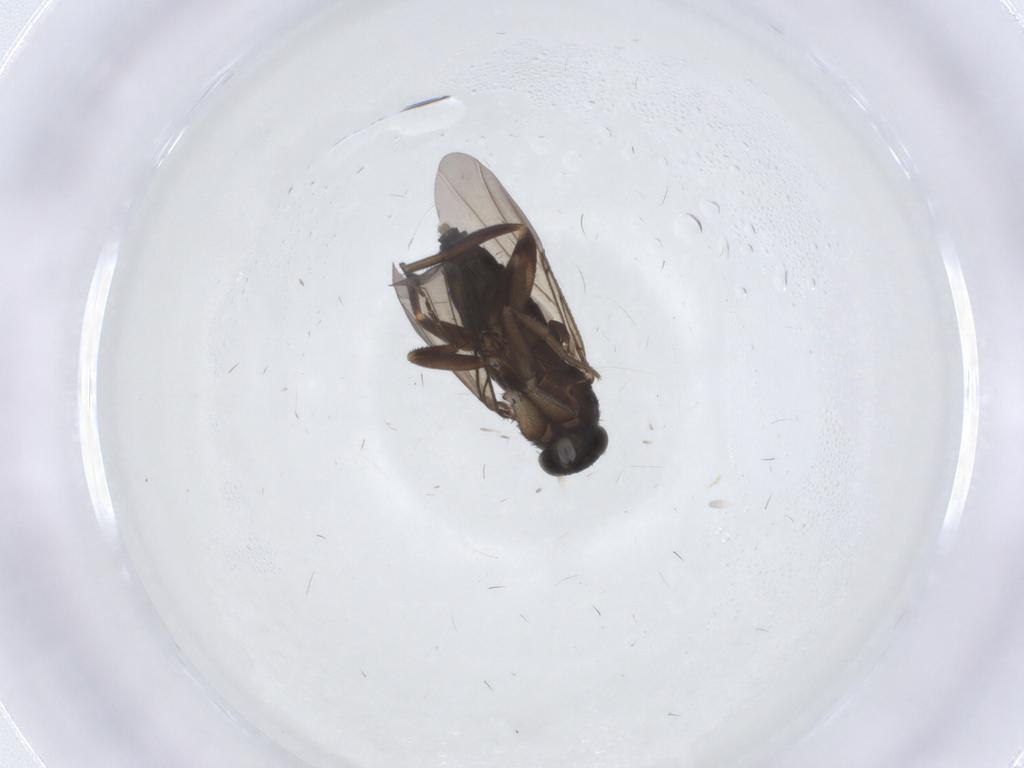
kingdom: Animalia
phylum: Arthropoda
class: Insecta
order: Diptera
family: Phoridae
